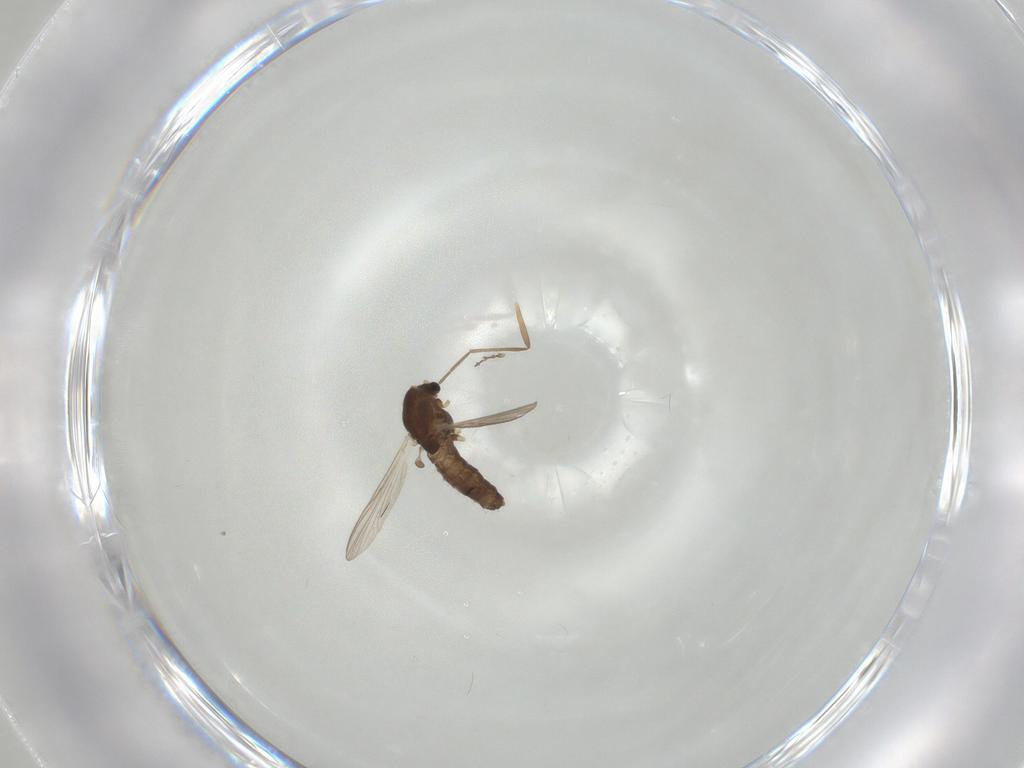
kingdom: Animalia
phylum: Arthropoda
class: Insecta
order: Diptera
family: Chironomidae
